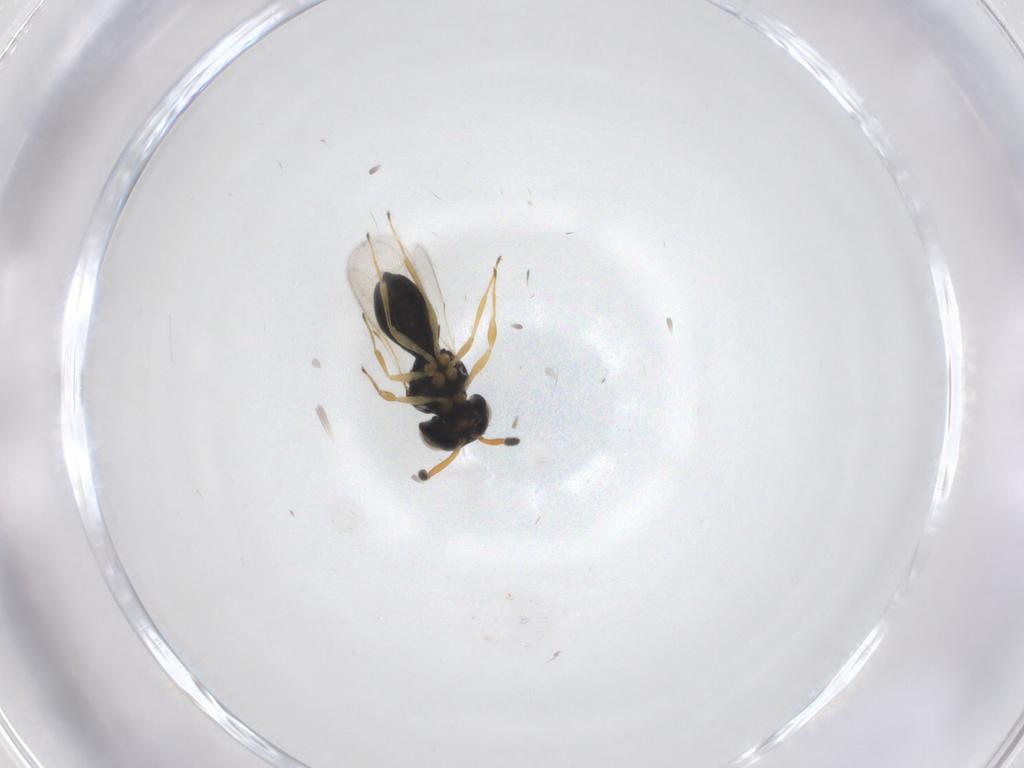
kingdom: Animalia
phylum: Arthropoda
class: Insecta
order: Hymenoptera
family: Scelionidae
